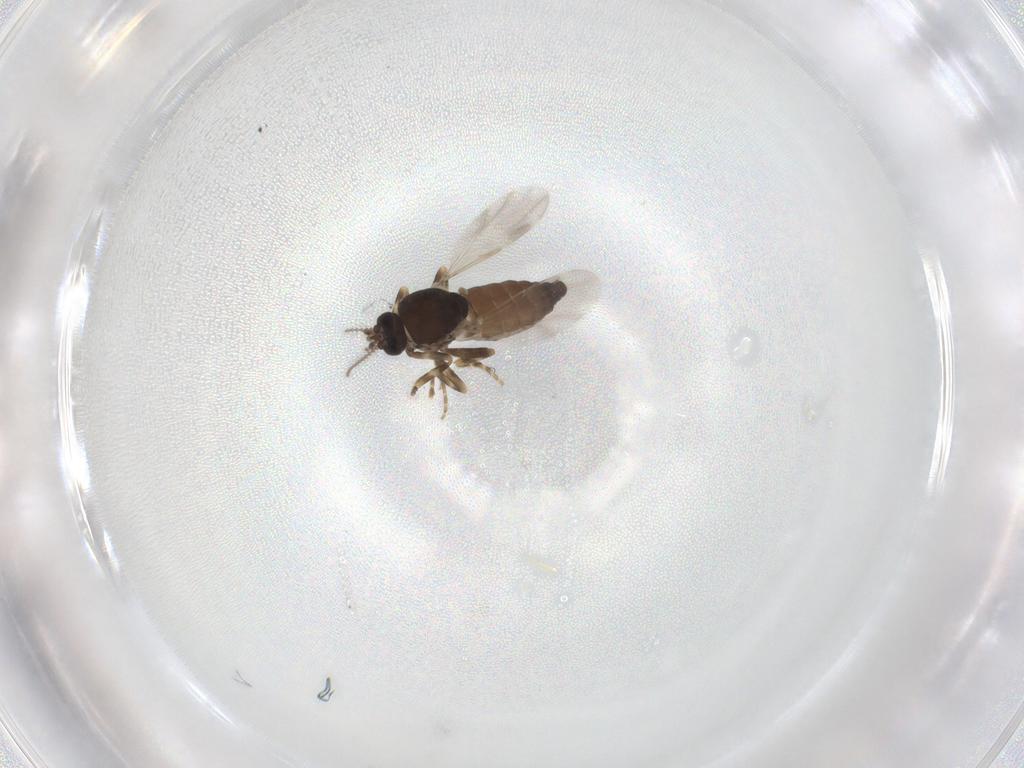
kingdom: Animalia
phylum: Arthropoda
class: Insecta
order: Diptera
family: Ceratopogonidae
